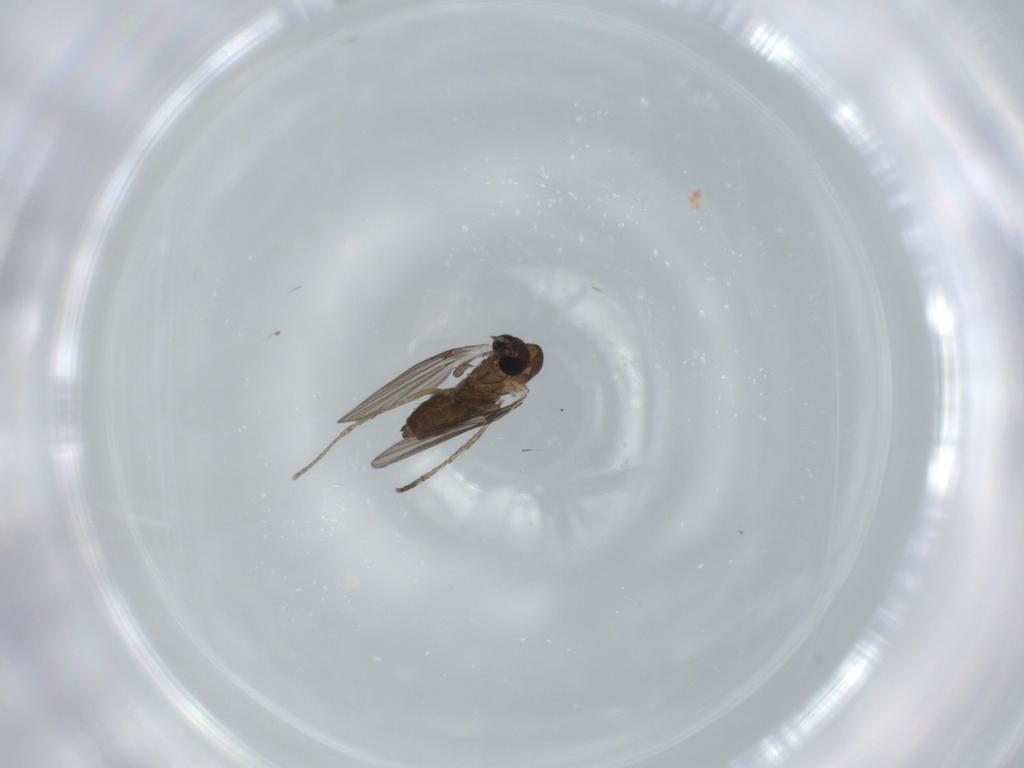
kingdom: Animalia
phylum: Arthropoda
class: Insecta
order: Diptera
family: Psychodidae
